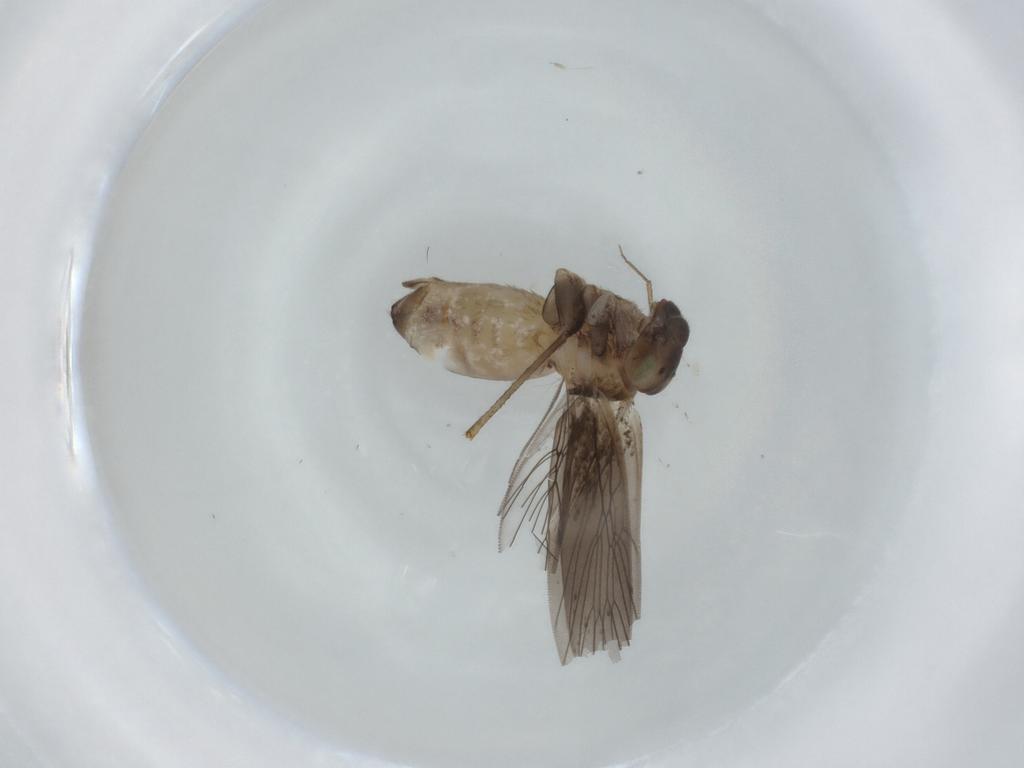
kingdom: Animalia
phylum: Arthropoda
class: Insecta
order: Psocodea
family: Lepidopsocidae
